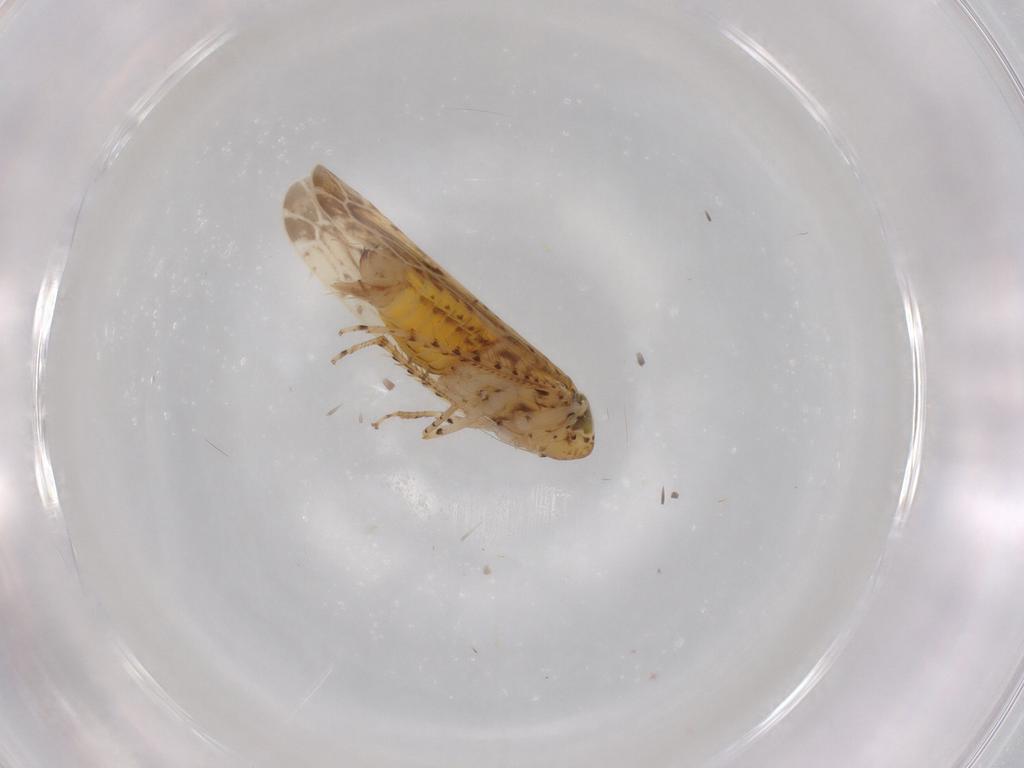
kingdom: Animalia
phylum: Arthropoda
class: Insecta
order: Hemiptera
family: Cicadellidae
